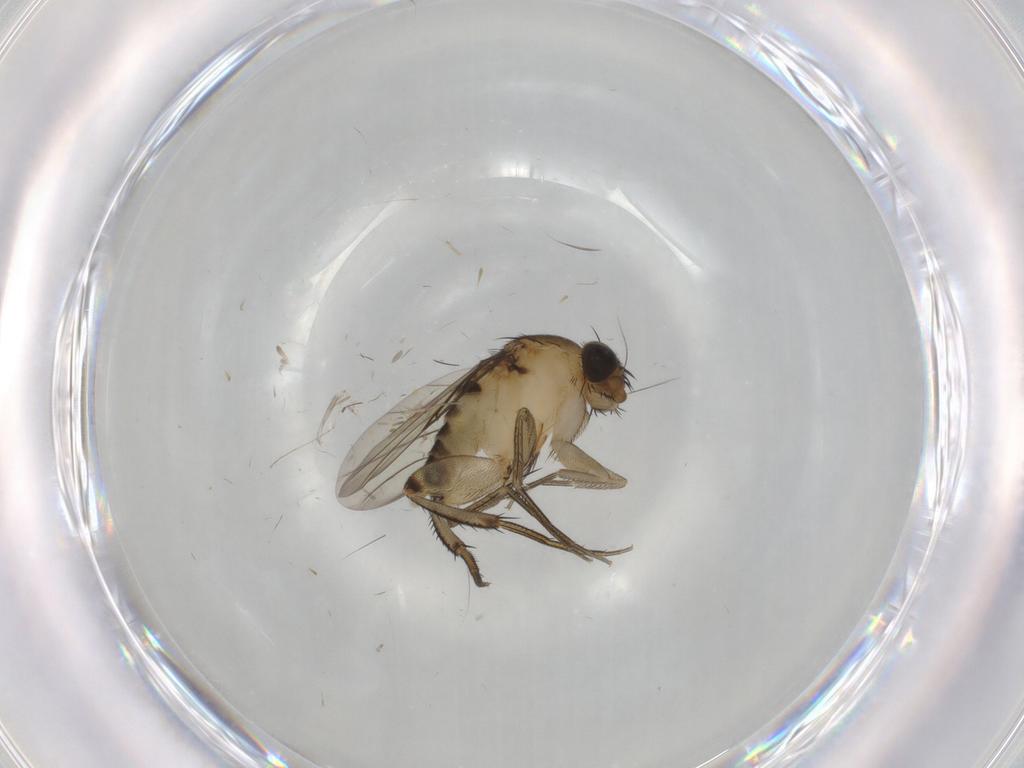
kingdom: Animalia
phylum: Arthropoda
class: Insecta
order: Diptera
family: Phoridae
